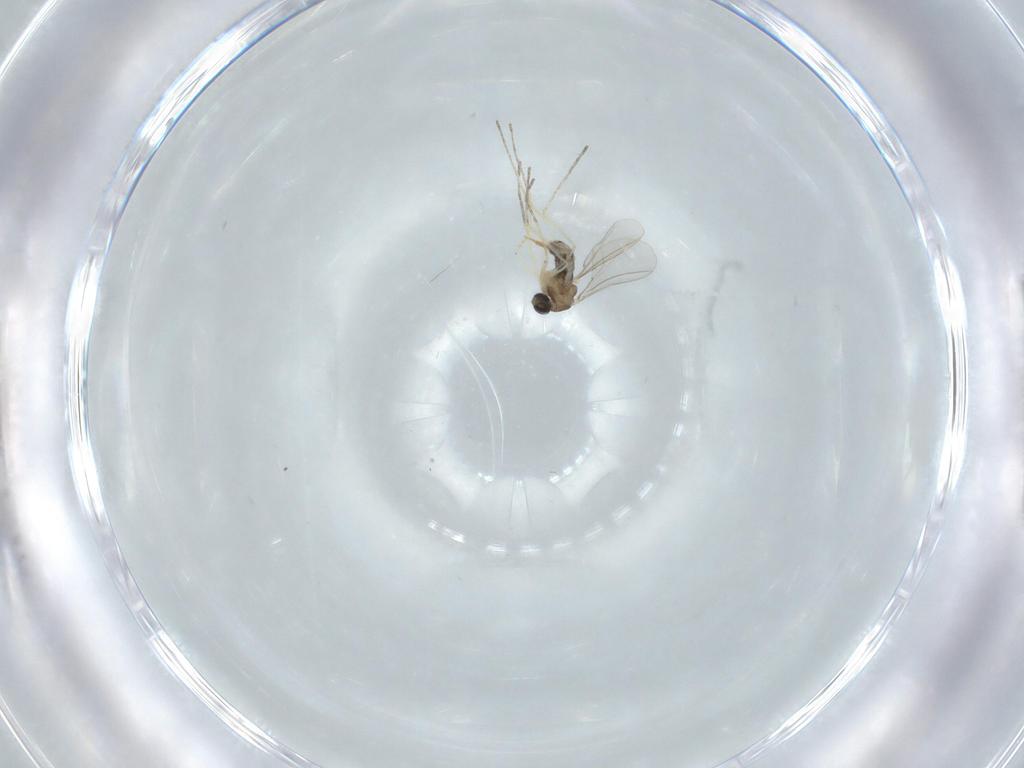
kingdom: Animalia
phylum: Arthropoda
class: Insecta
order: Diptera
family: Cecidomyiidae
